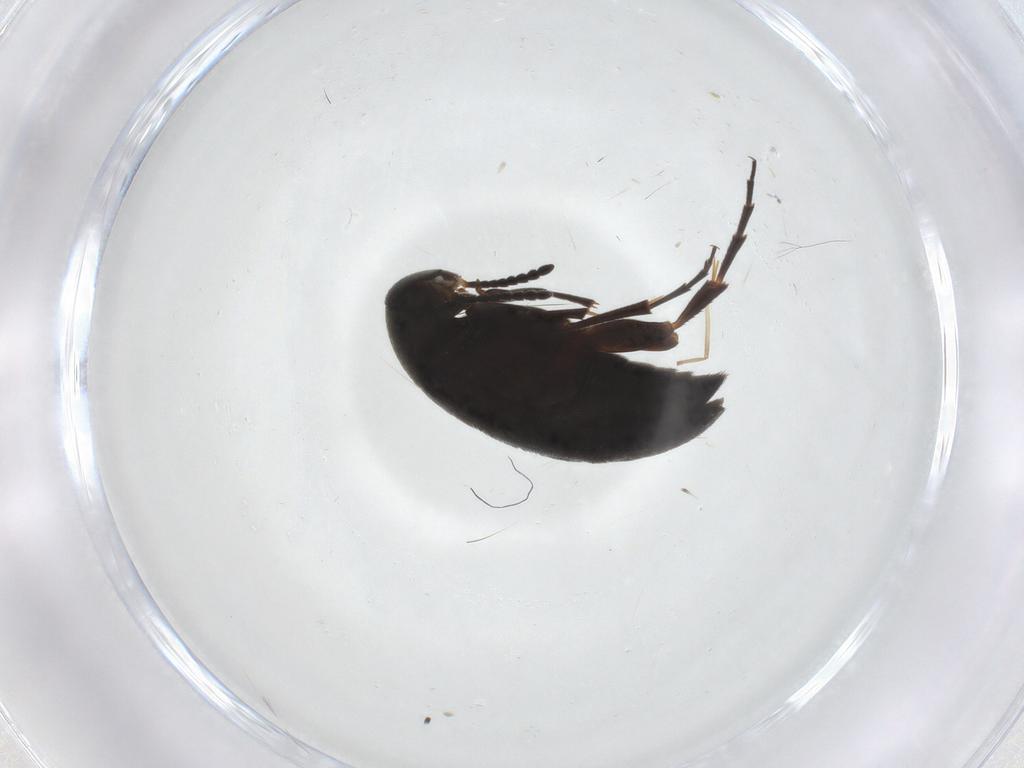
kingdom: Animalia
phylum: Arthropoda
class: Insecta
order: Coleoptera
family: Scraptiidae
